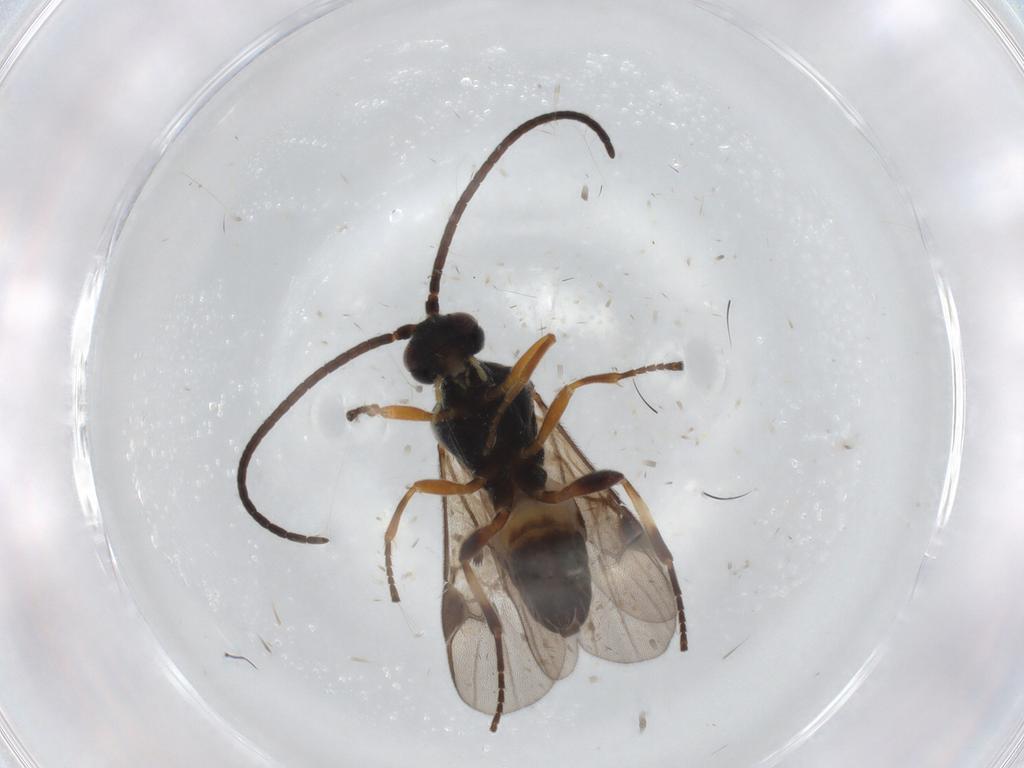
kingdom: Animalia
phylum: Arthropoda
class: Insecta
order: Hymenoptera
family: Braconidae
